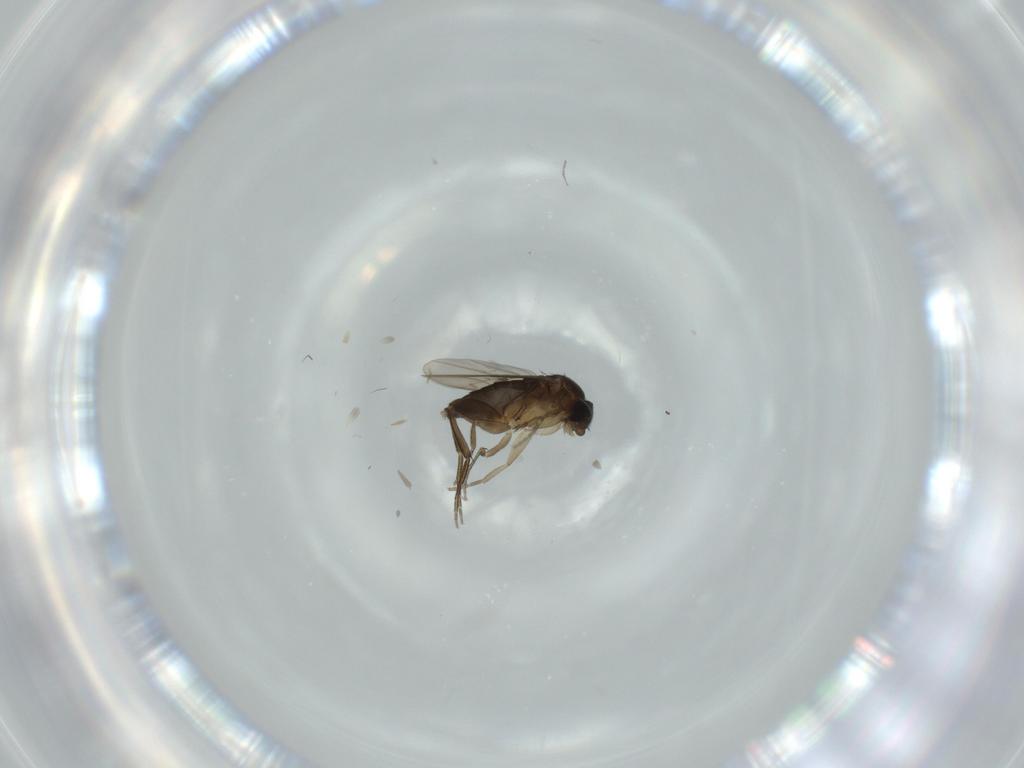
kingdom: Animalia
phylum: Arthropoda
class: Insecta
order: Diptera
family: Phoridae
